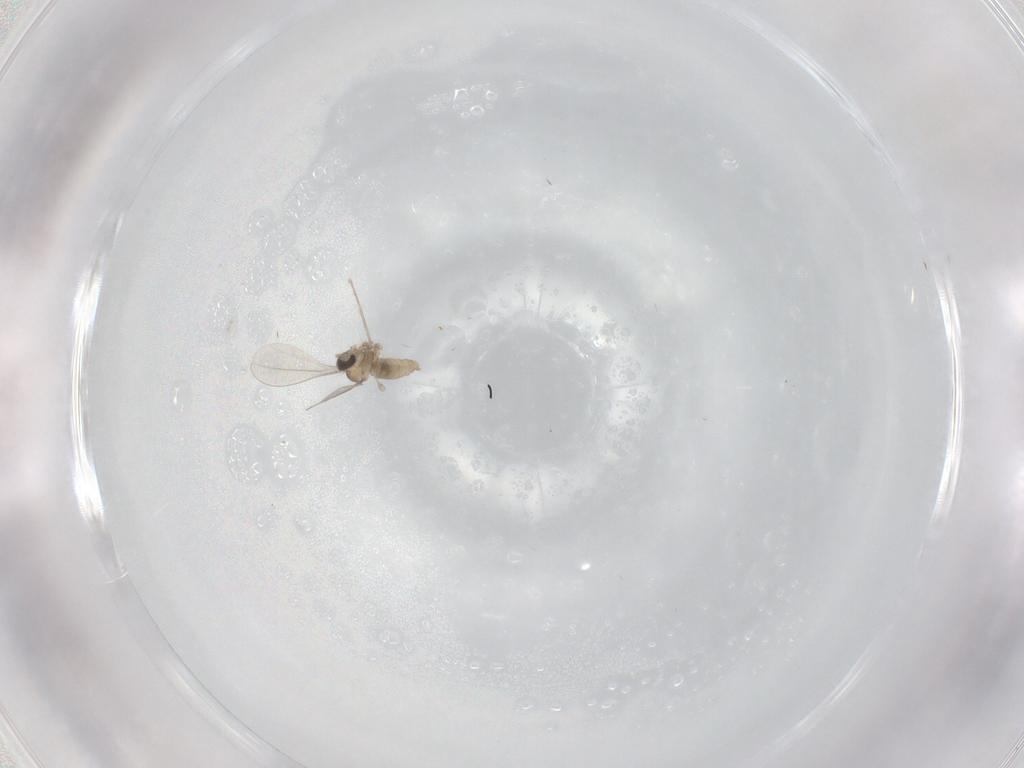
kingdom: Animalia
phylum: Arthropoda
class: Insecta
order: Diptera
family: Cecidomyiidae
